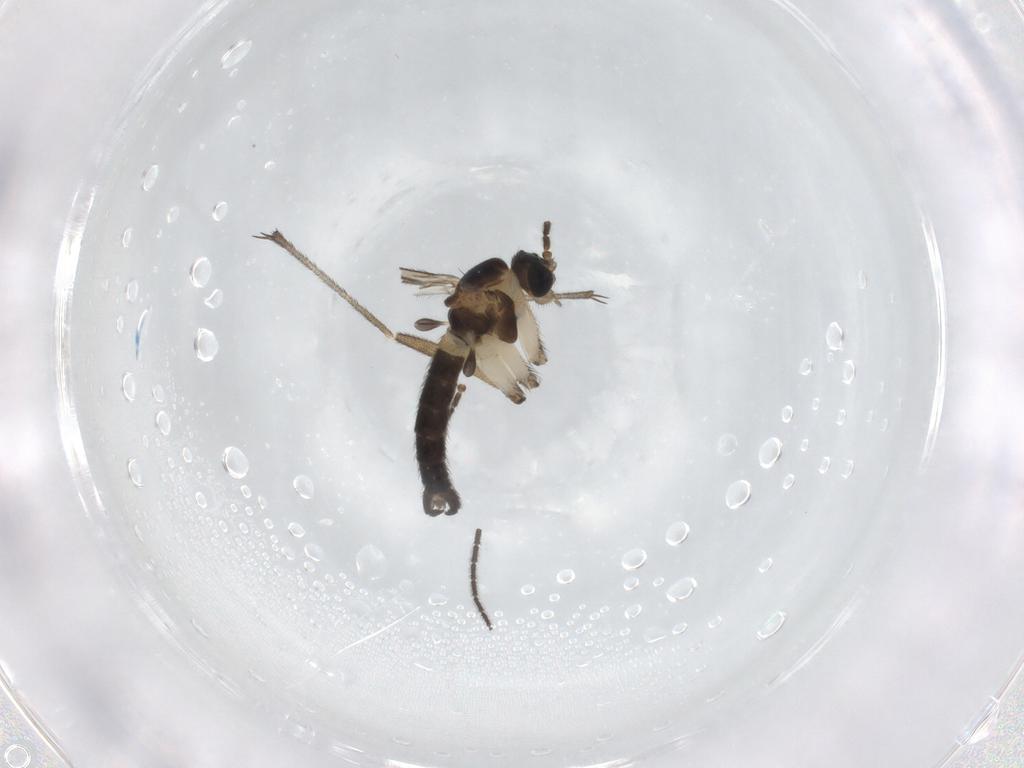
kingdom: Animalia
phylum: Arthropoda
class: Insecta
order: Diptera
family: Sciaridae
